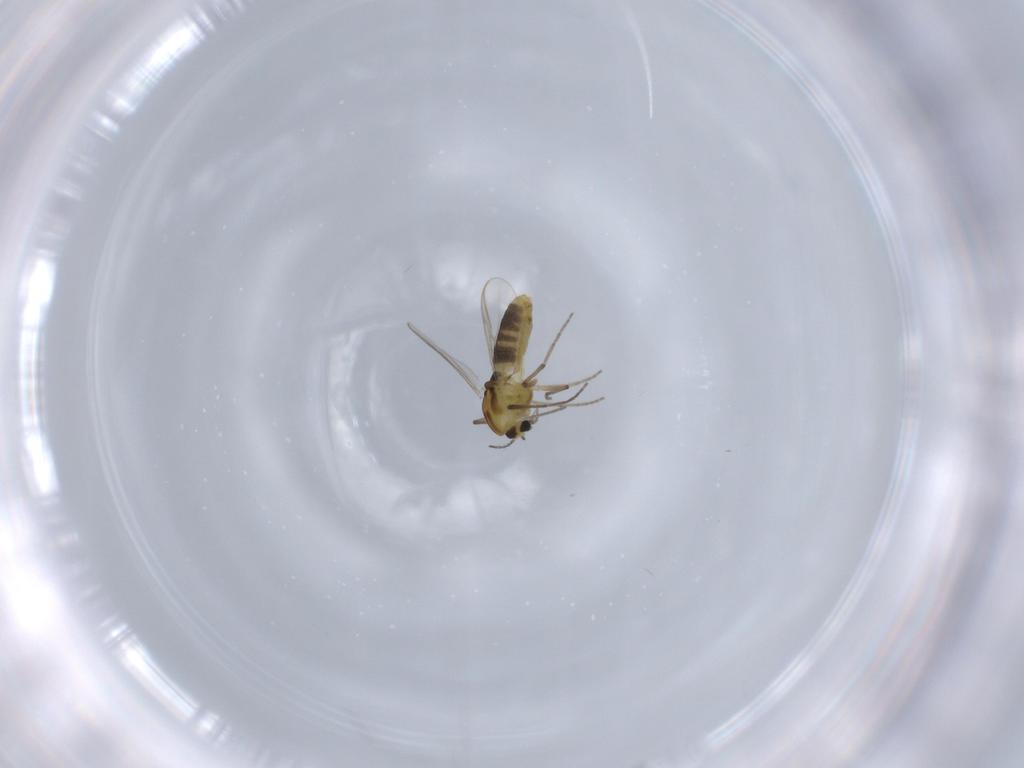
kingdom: Animalia
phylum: Arthropoda
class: Insecta
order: Diptera
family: Chironomidae
